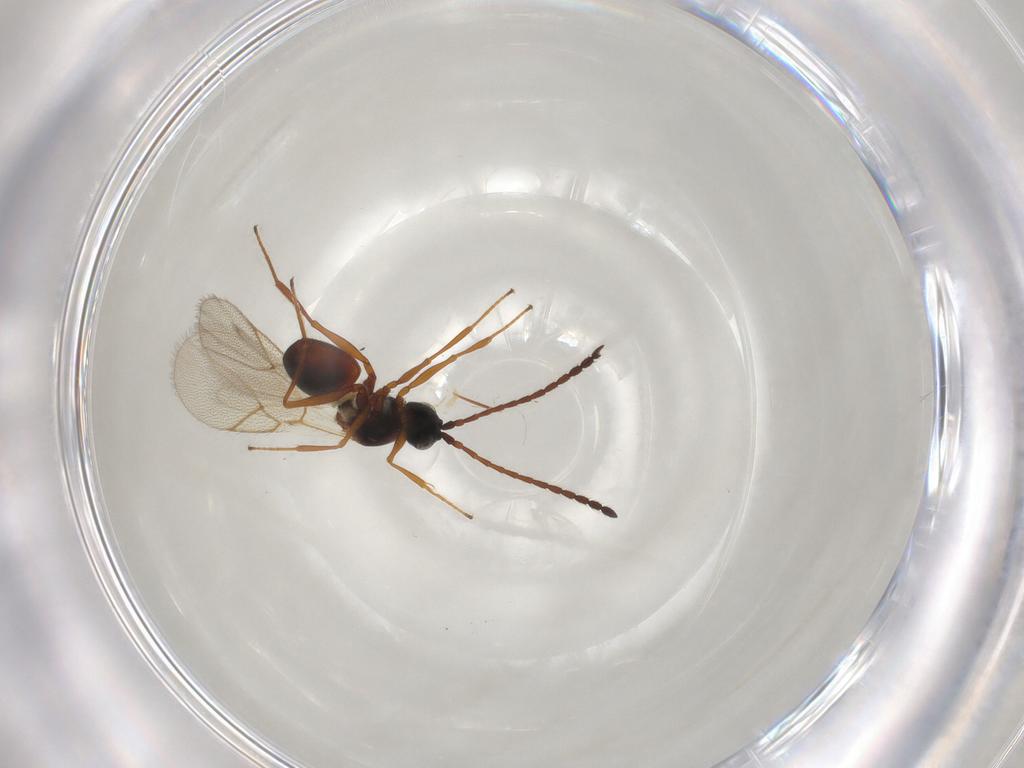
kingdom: Animalia
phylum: Arthropoda
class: Insecta
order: Hymenoptera
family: Figitidae
